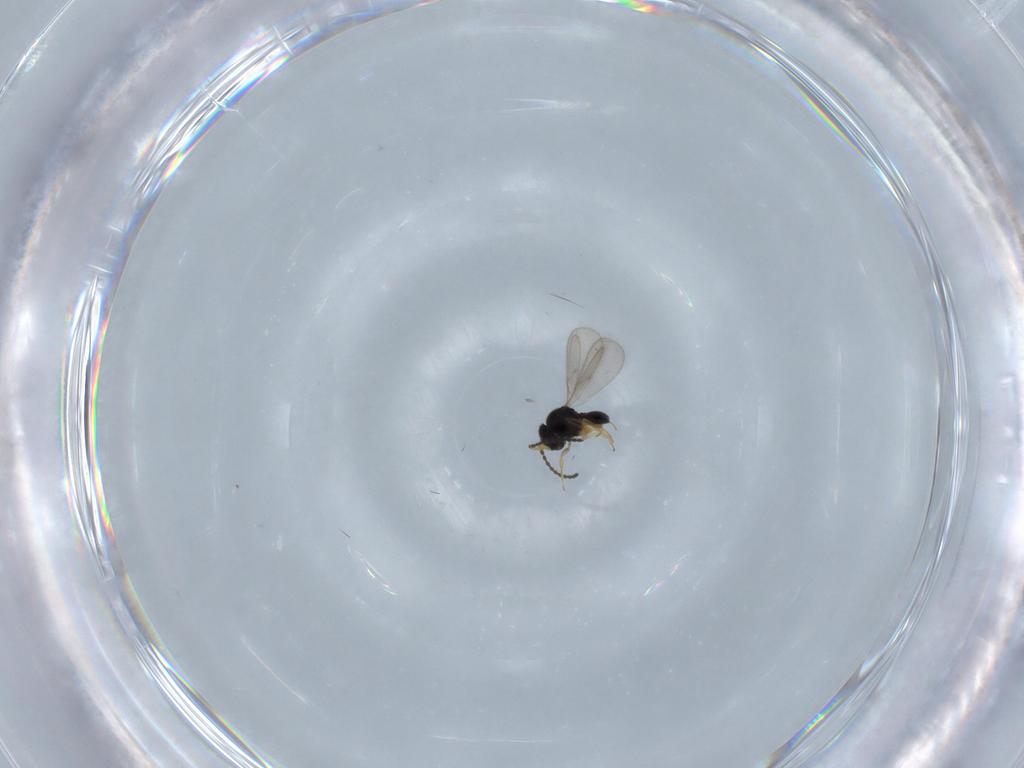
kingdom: Animalia
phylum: Arthropoda
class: Insecta
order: Hymenoptera
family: Scelionidae
